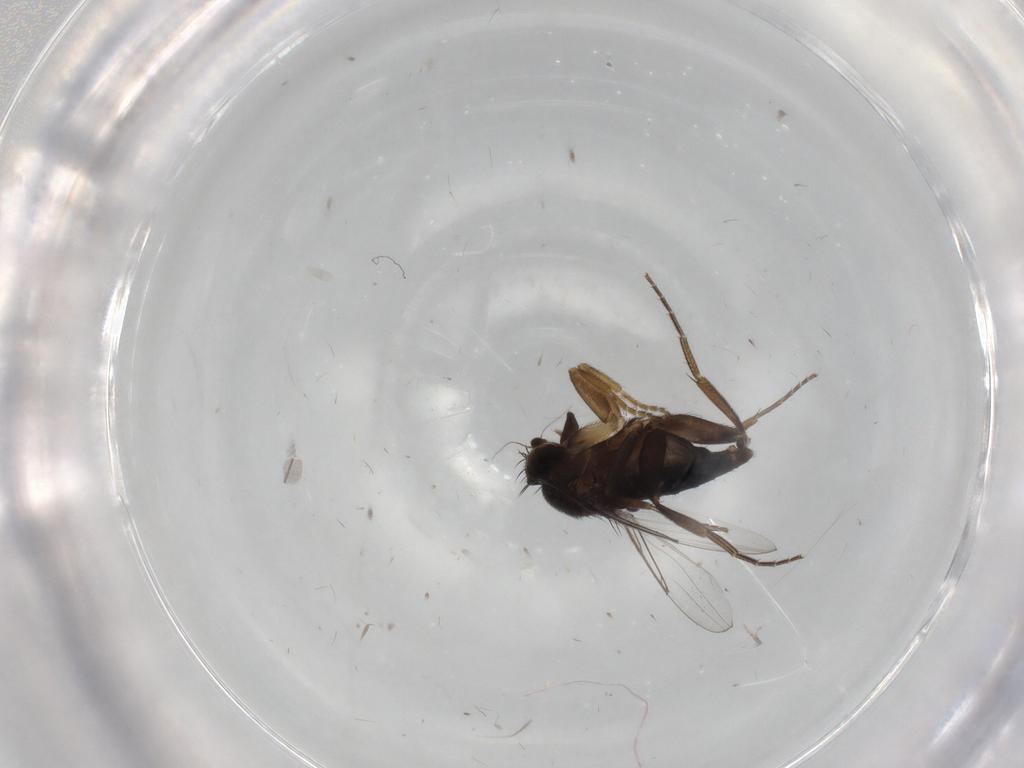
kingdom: Animalia
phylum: Arthropoda
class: Insecta
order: Diptera
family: Phoridae
